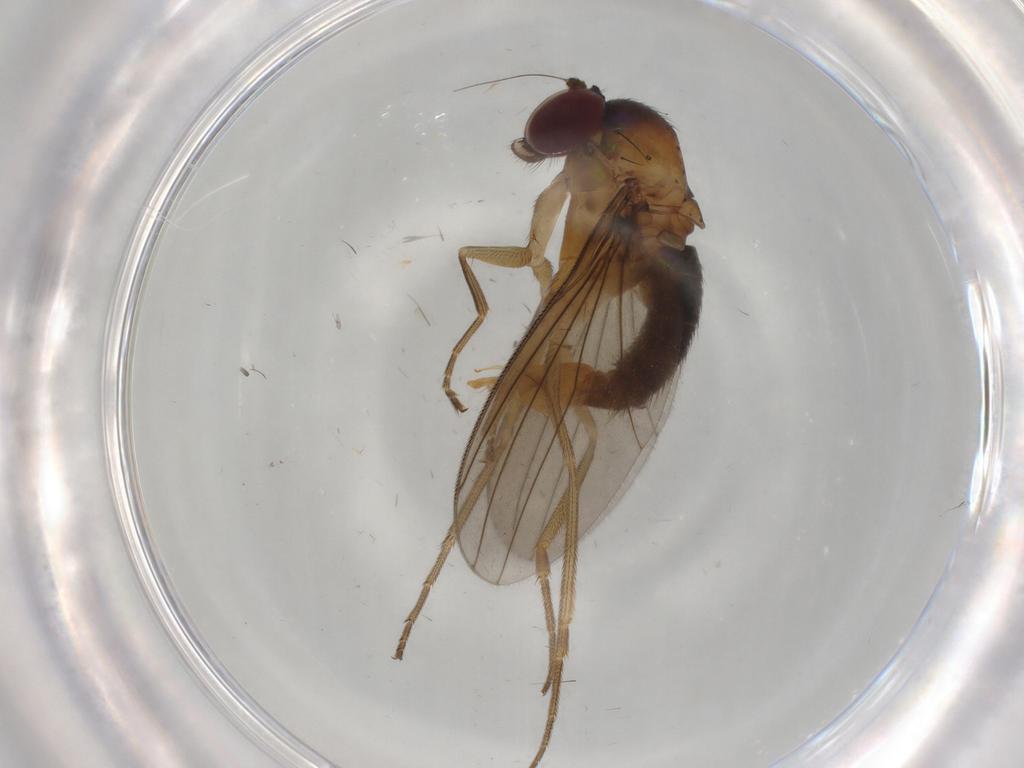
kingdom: Animalia
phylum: Arthropoda
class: Insecta
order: Diptera
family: Dolichopodidae
